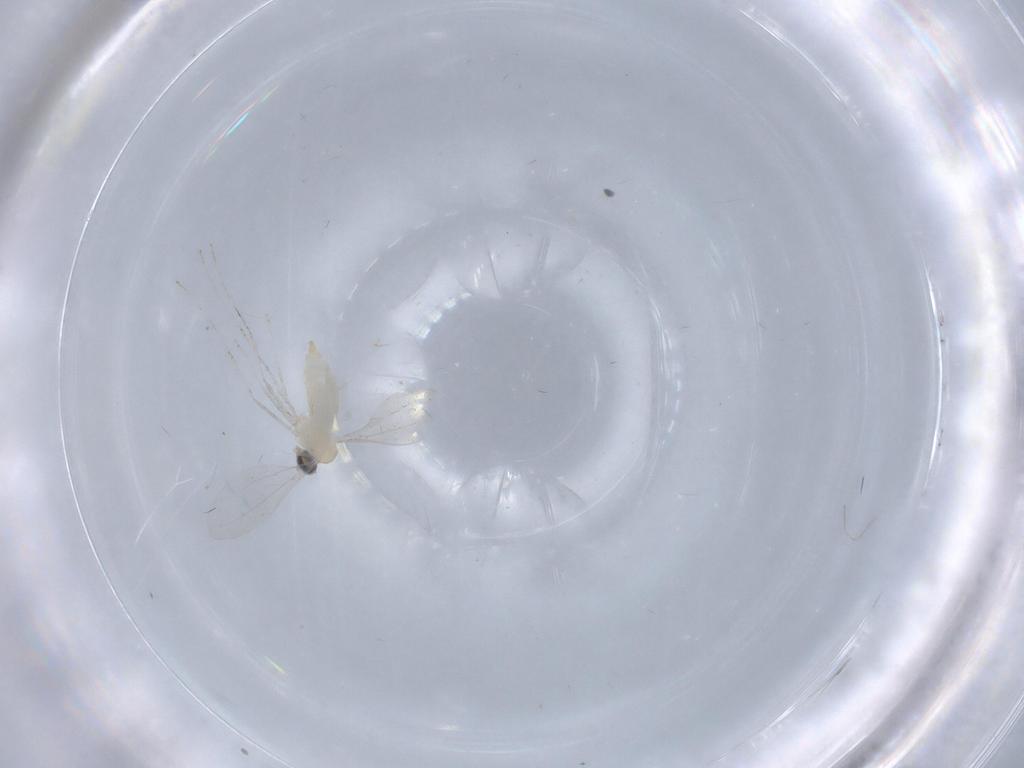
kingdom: Animalia
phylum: Arthropoda
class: Insecta
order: Diptera
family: Cecidomyiidae
